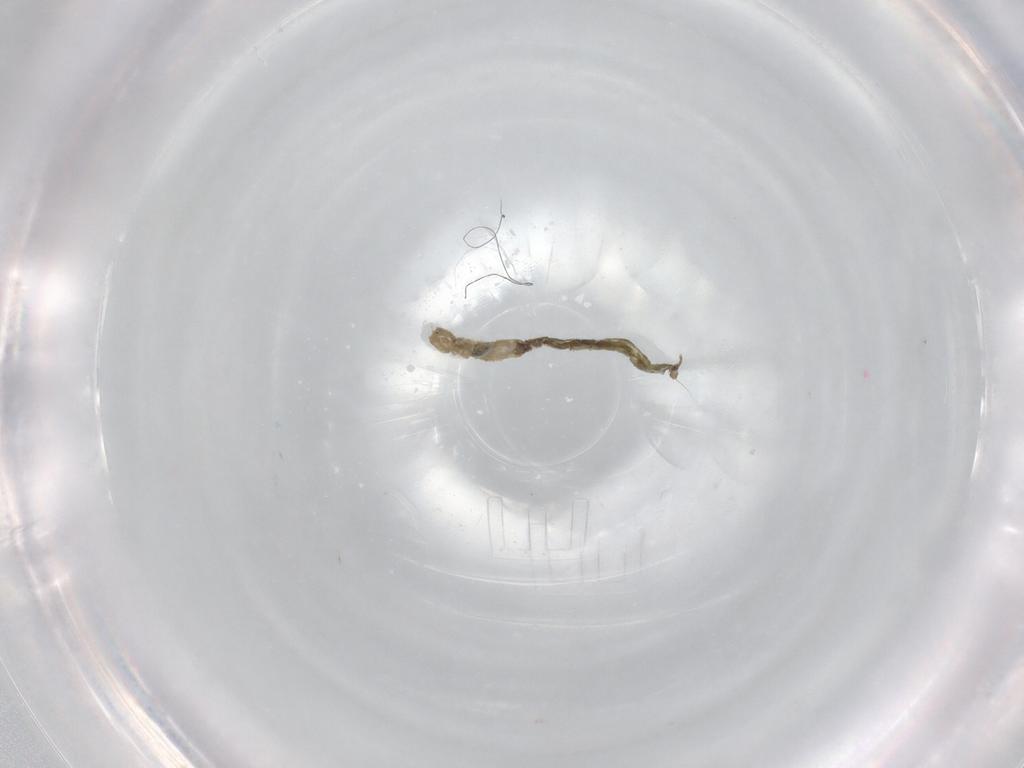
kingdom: Animalia
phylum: Arthropoda
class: Insecta
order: Diptera
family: Chironomidae
